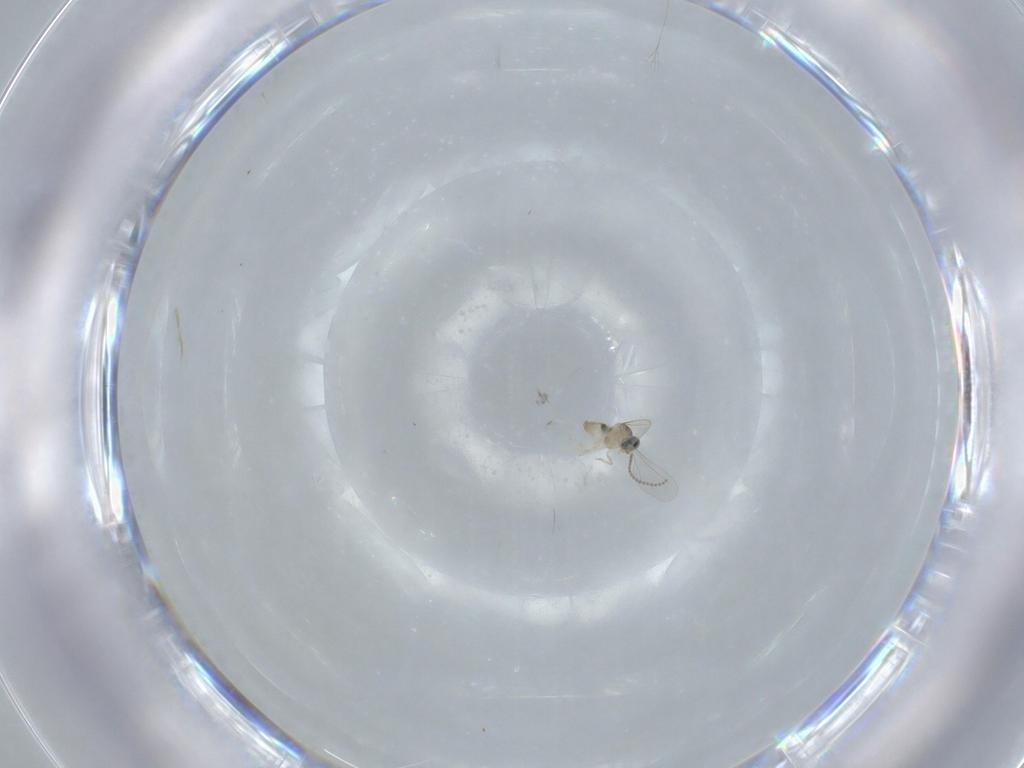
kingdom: Animalia
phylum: Arthropoda
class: Insecta
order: Diptera
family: Cecidomyiidae
